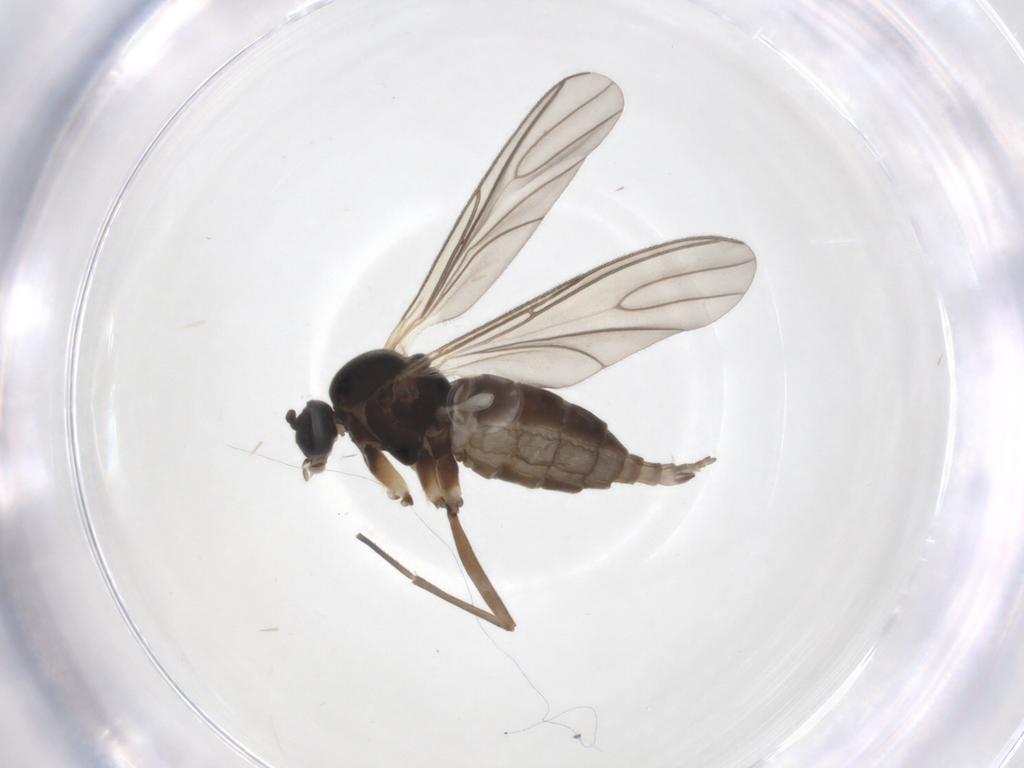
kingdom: Animalia
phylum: Arthropoda
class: Insecta
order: Diptera
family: Sciaridae
